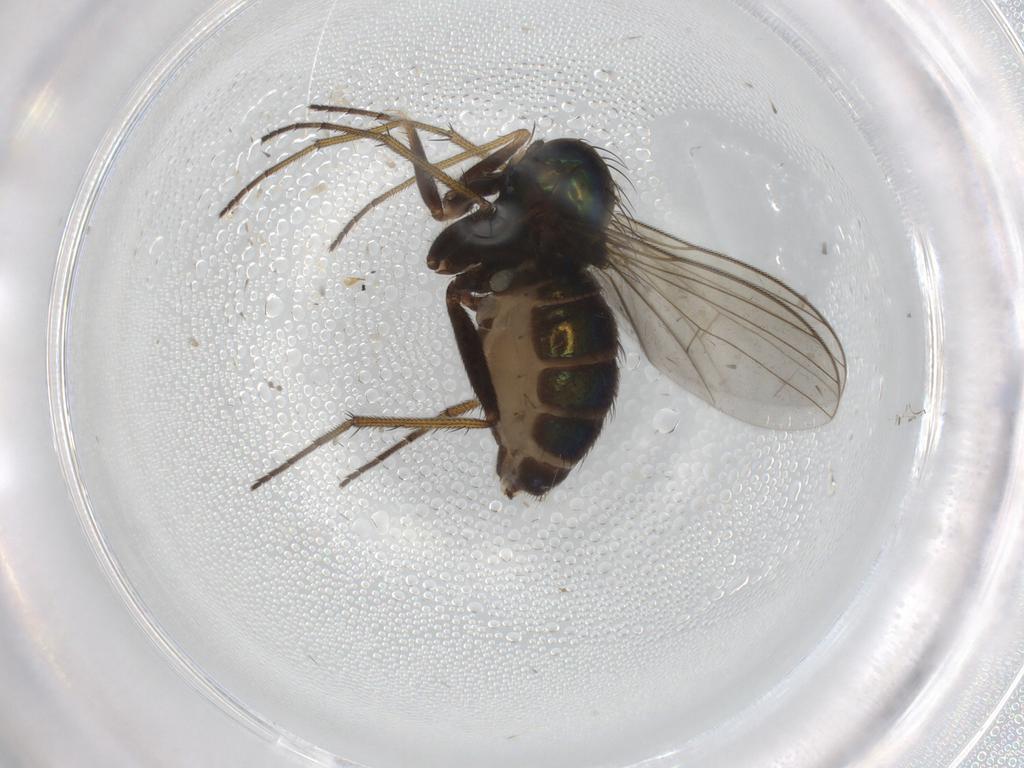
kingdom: Animalia
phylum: Arthropoda
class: Insecta
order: Diptera
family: Dolichopodidae
